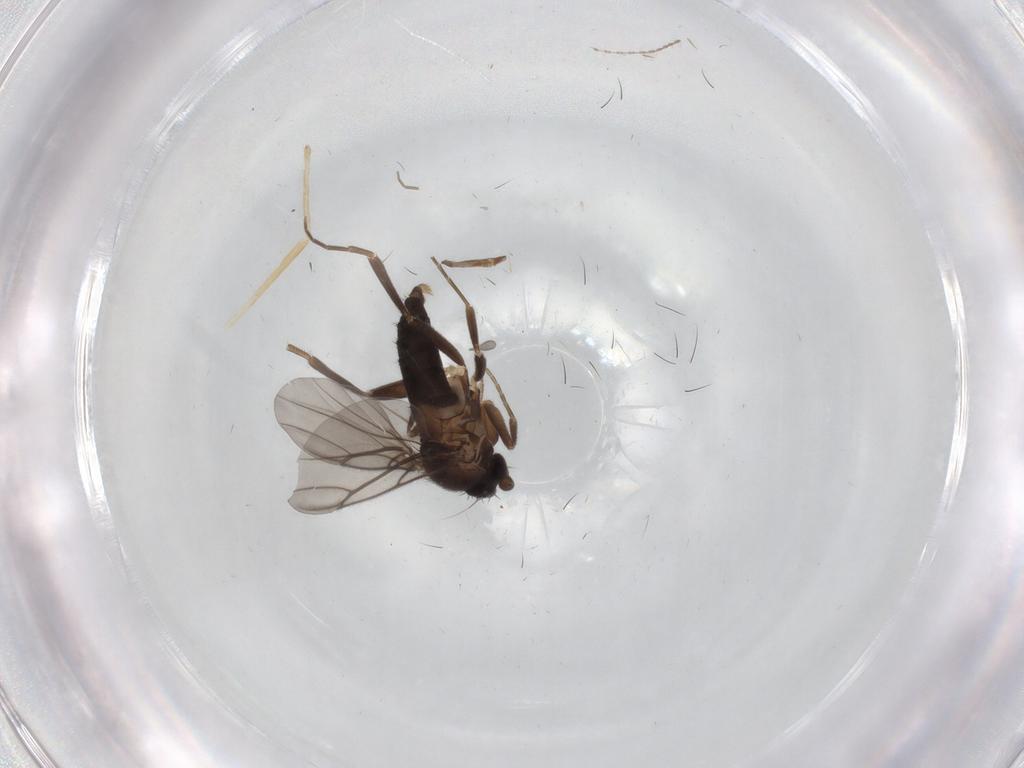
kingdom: Animalia
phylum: Arthropoda
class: Insecta
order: Diptera
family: Chironomidae
